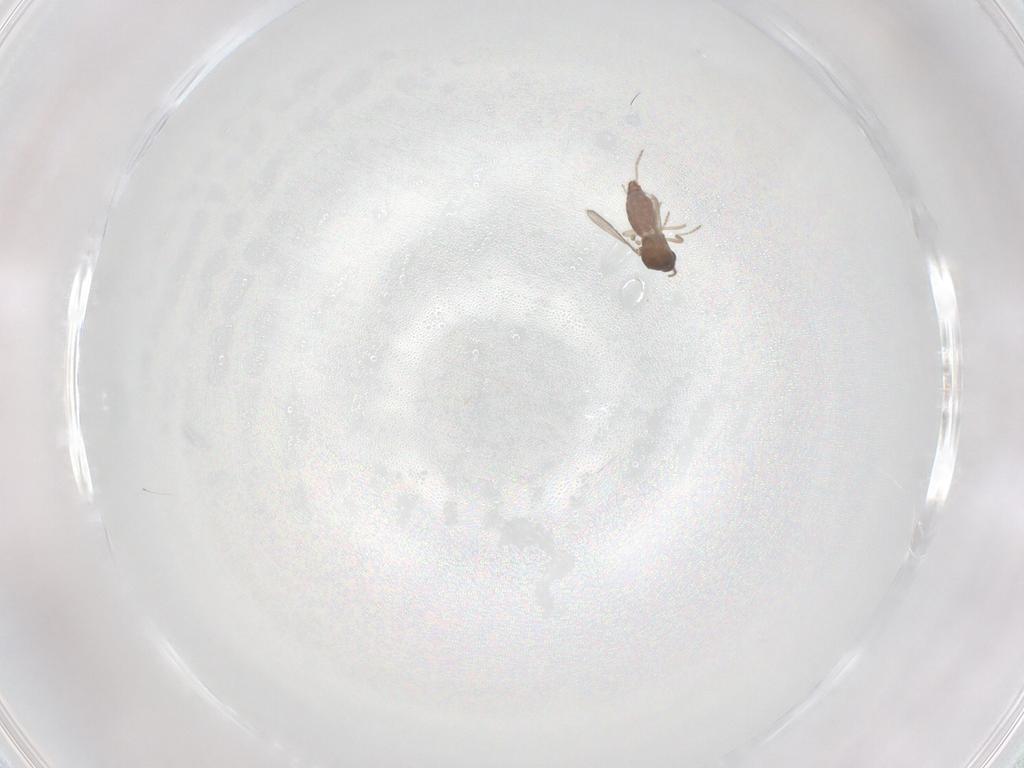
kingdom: Animalia
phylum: Arthropoda
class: Insecta
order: Diptera
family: Ceratopogonidae
